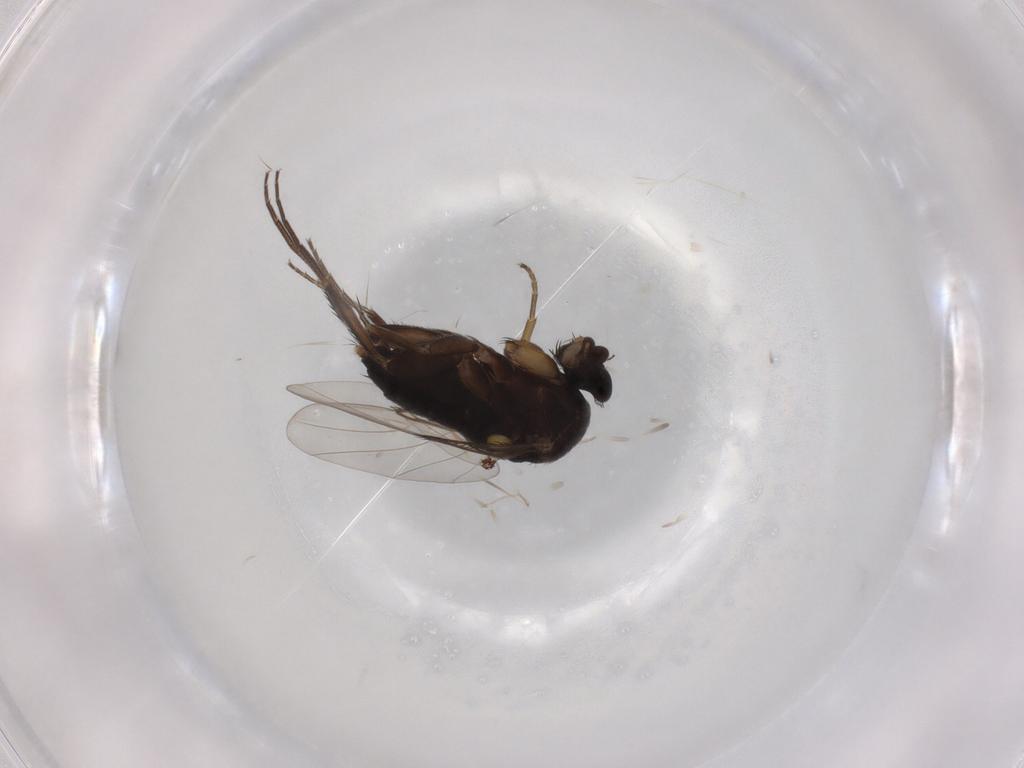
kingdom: Animalia
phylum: Arthropoda
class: Insecta
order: Diptera
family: Phoridae
